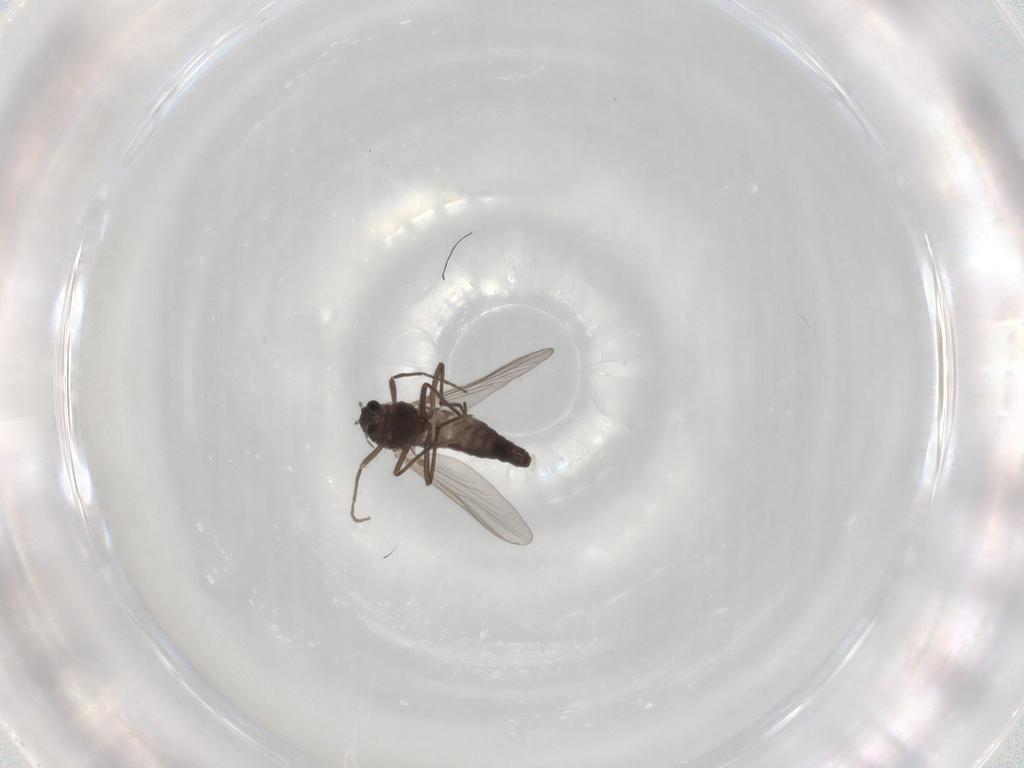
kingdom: Animalia
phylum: Arthropoda
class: Insecta
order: Diptera
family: Chironomidae
